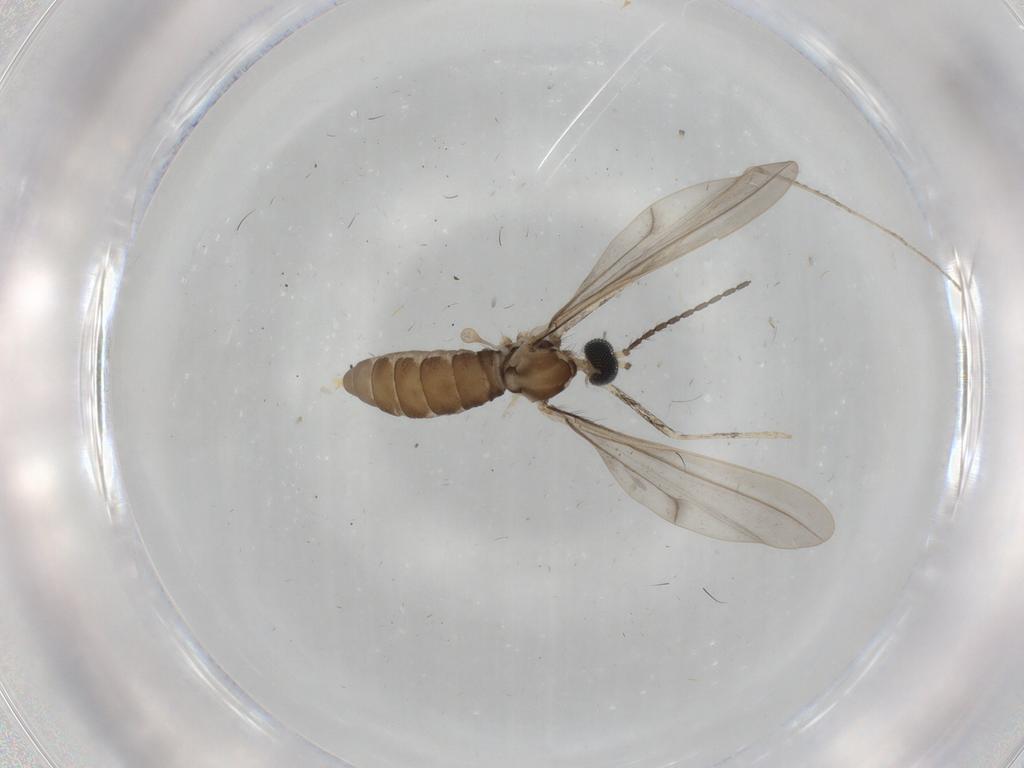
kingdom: Animalia
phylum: Arthropoda
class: Insecta
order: Diptera
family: Cecidomyiidae
